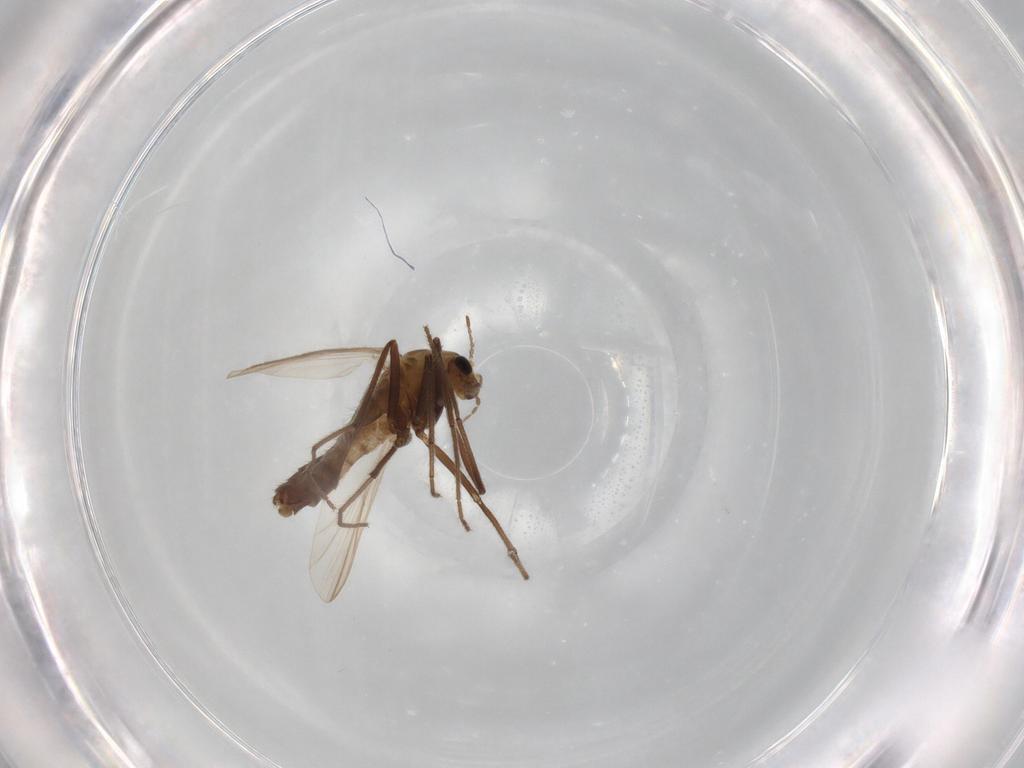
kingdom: Animalia
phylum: Arthropoda
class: Insecta
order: Diptera
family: Chironomidae
